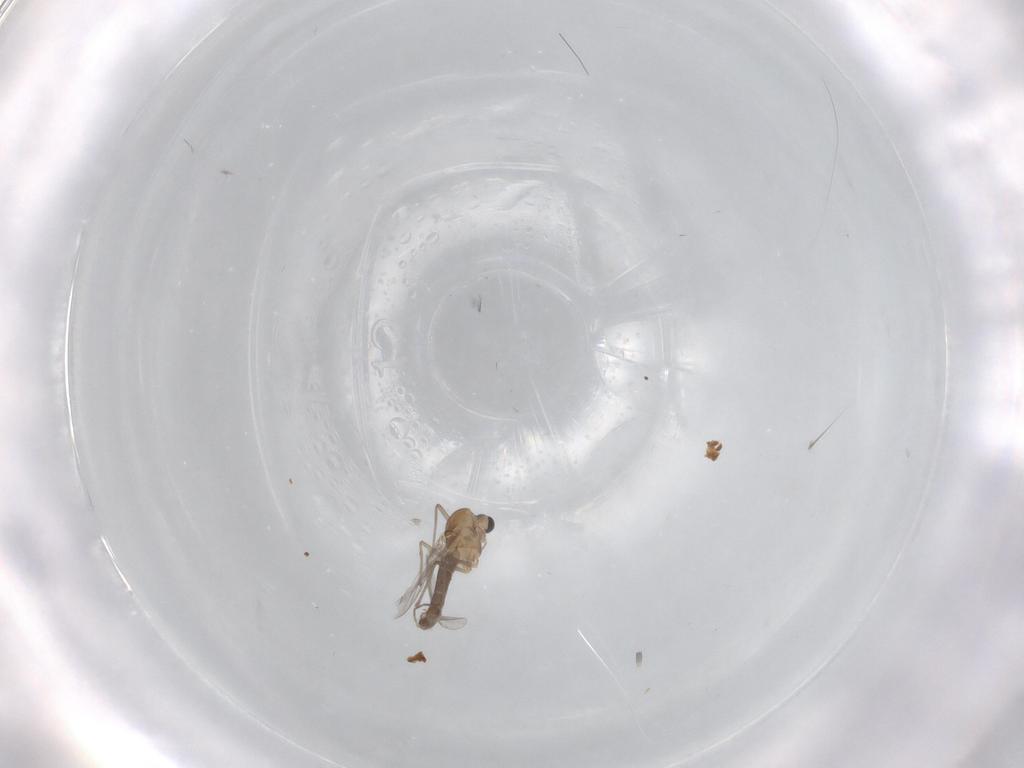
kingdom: Animalia
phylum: Arthropoda
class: Insecta
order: Diptera
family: Chironomidae
